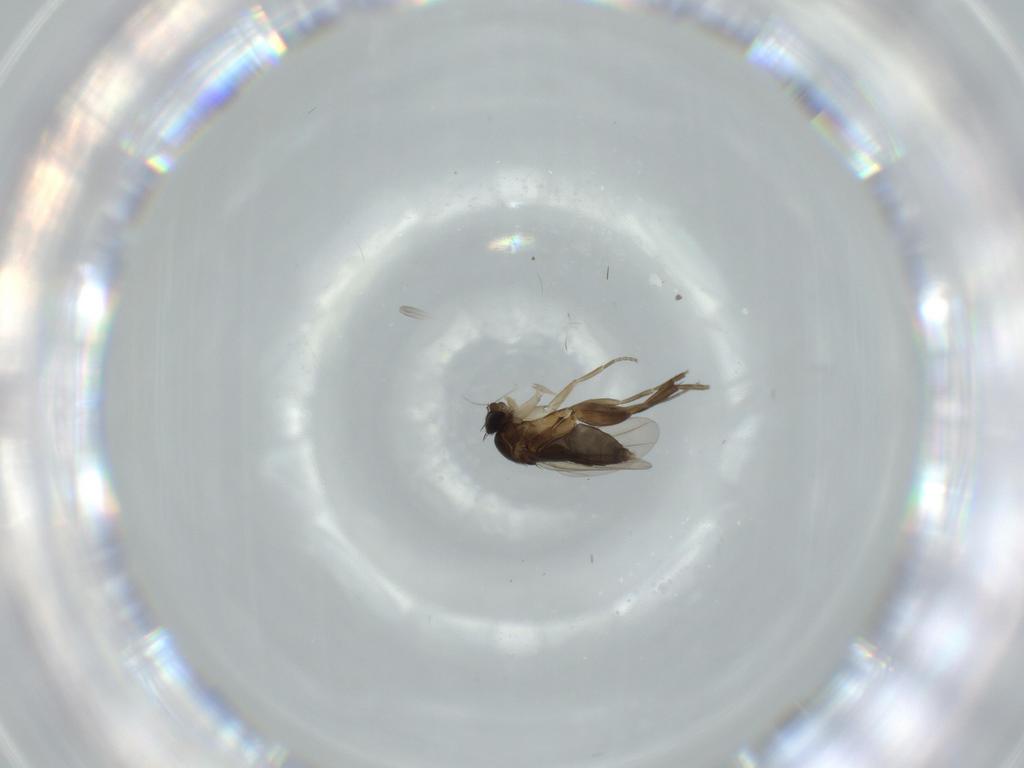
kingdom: Animalia
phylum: Arthropoda
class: Insecta
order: Diptera
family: Phoridae
